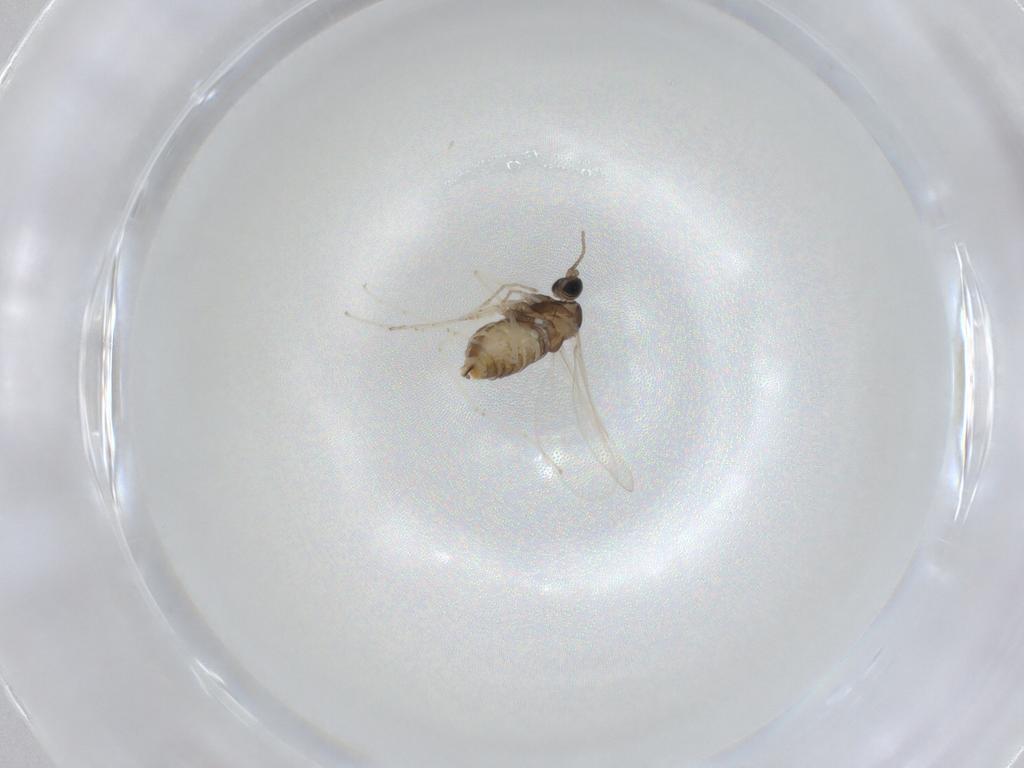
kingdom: Animalia
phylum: Arthropoda
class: Insecta
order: Diptera
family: Cecidomyiidae
